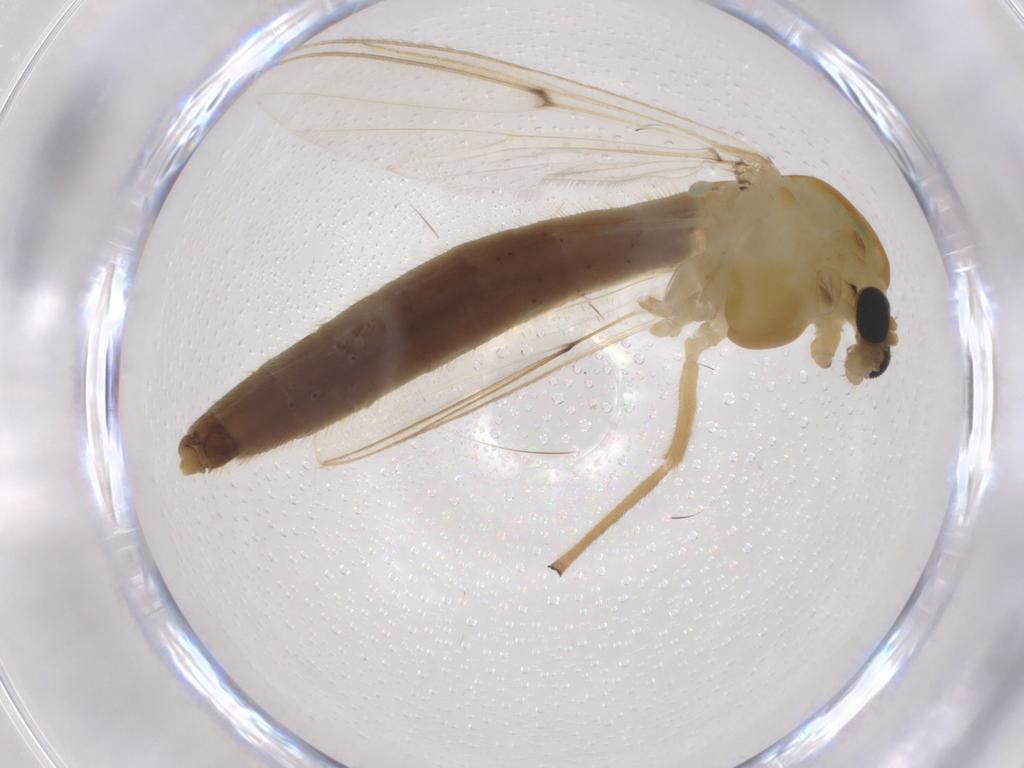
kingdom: Animalia
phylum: Arthropoda
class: Insecta
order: Diptera
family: Chironomidae
